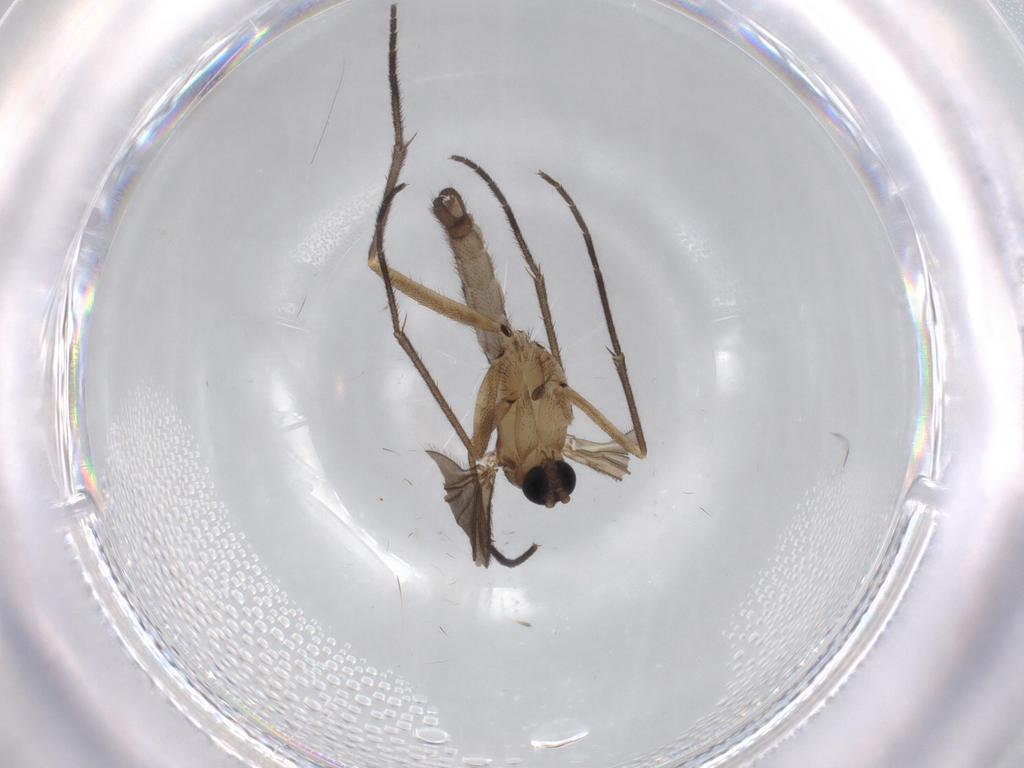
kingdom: Animalia
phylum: Arthropoda
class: Insecta
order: Diptera
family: Sciaridae
